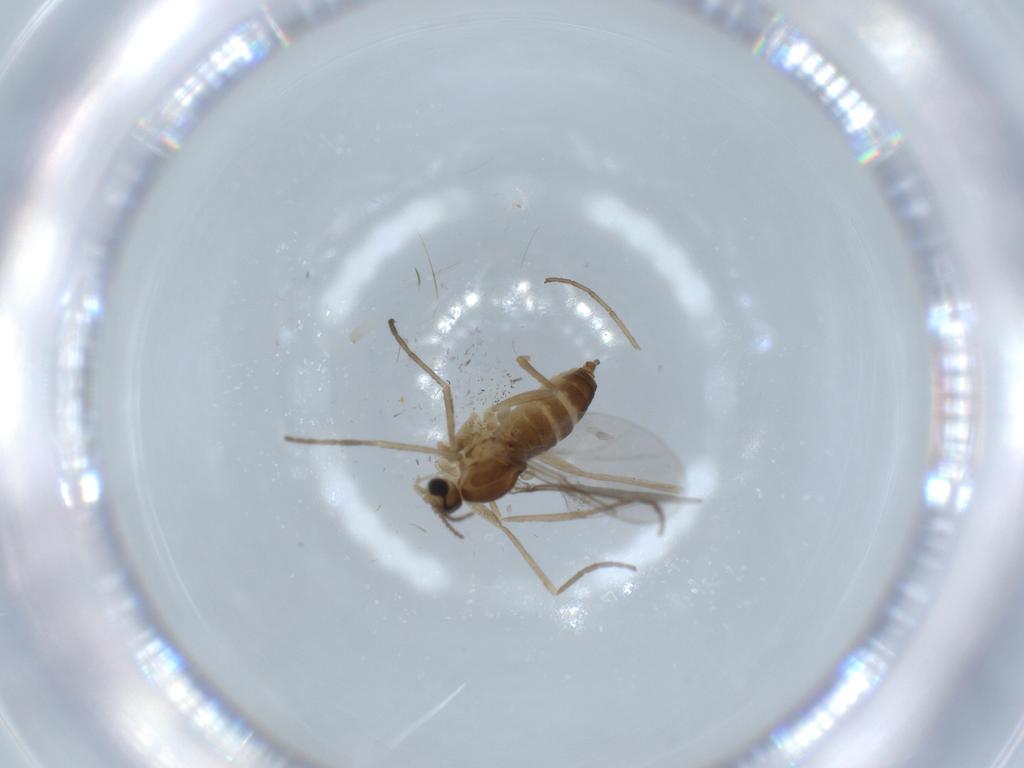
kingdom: Animalia
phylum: Arthropoda
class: Insecta
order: Diptera
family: Cecidomyiidae
